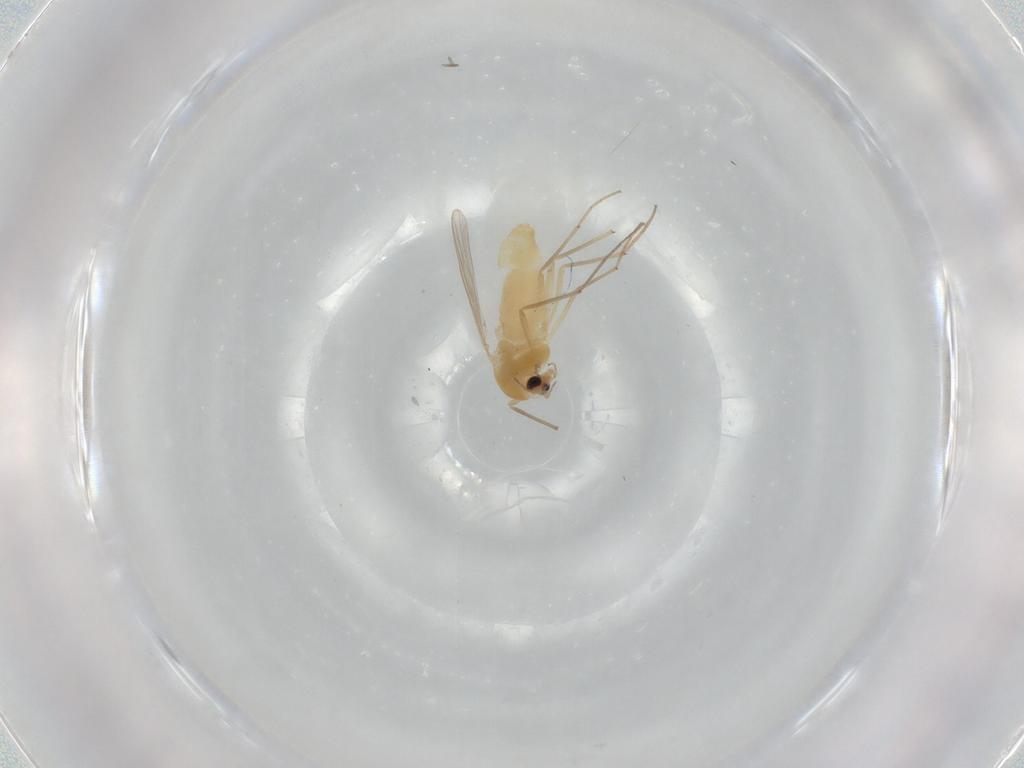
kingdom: Animalia
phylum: Arthropoda
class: Insecta
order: Diptera
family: Chironomidae
